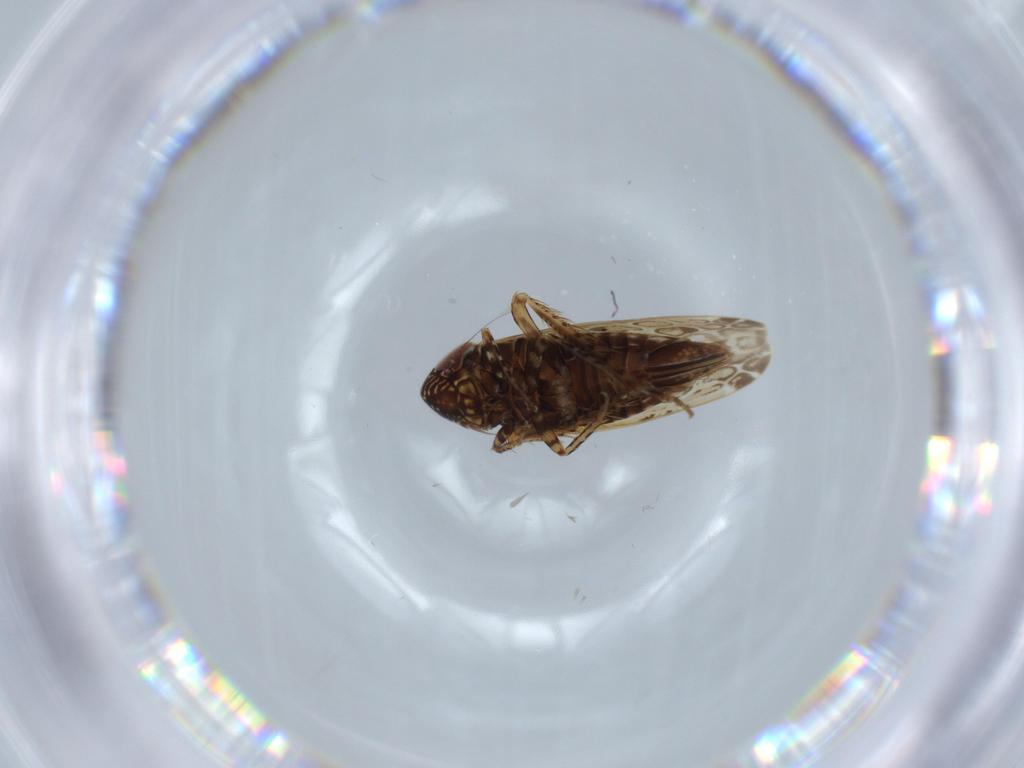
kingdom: Animalia
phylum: Arthropoda
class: Insecta
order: Hemiptera
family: Cicadellidae
